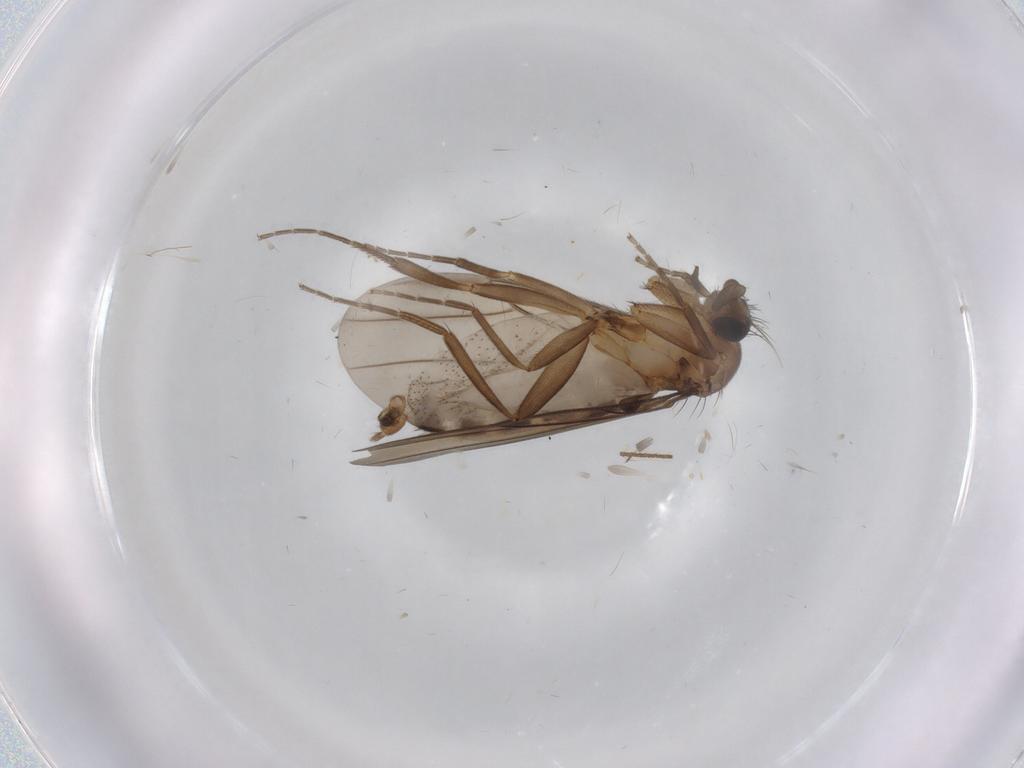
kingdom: Animalia
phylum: Arthropoda
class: Insecta
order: Diptera
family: Phoridae
